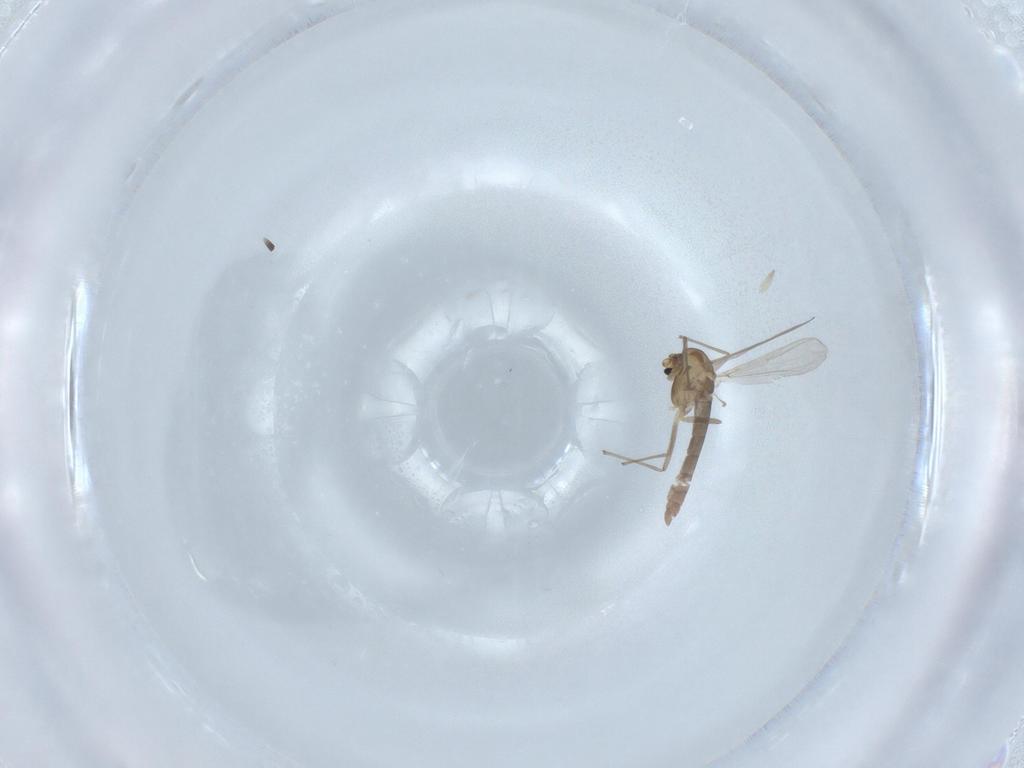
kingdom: Animalia
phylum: Arthropoda
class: Insecta
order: Diptera
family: Chironomidae
